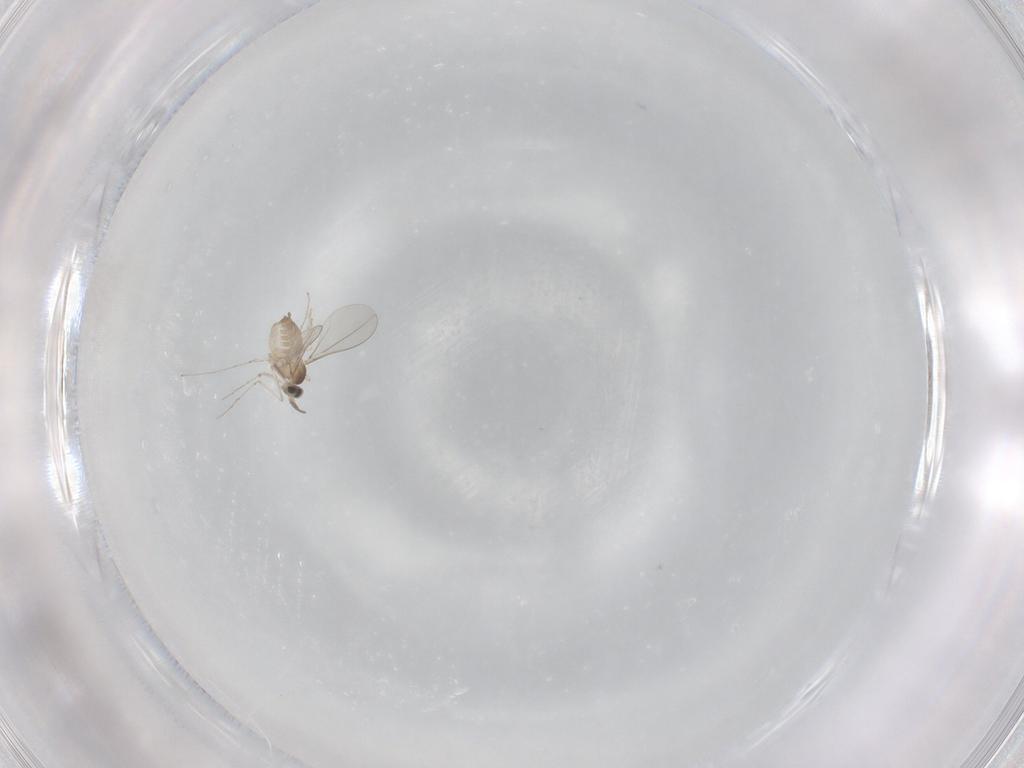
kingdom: Animalia
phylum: Arthropoda
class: Insecta
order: Diptera
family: Cecidomyiidae
